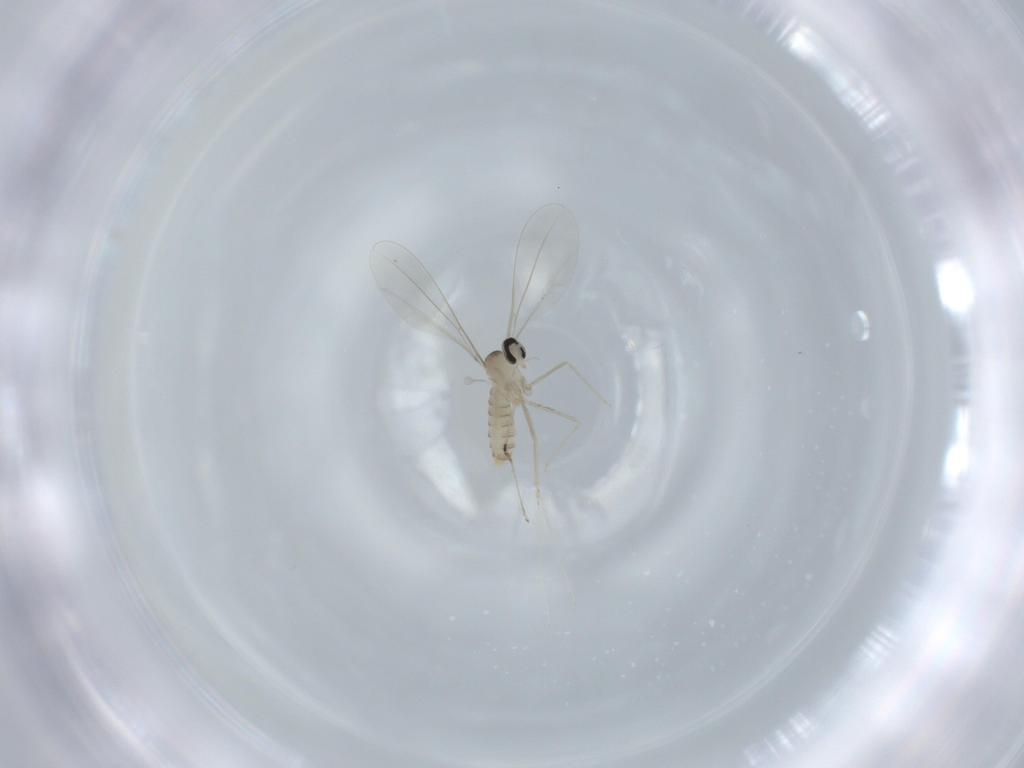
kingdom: Animalia
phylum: Arthropoda
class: Insecta
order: Diptera
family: Cecidomyiidae
